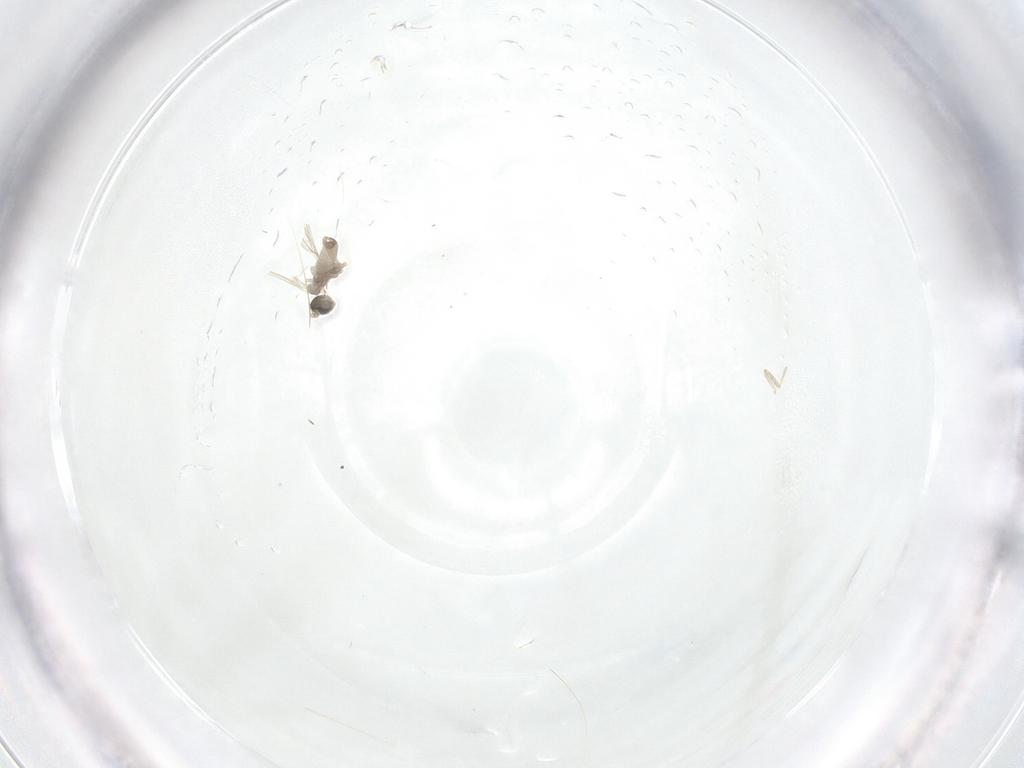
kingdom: Animalia
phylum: Arthropoda
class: Insecta
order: Diptera
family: Cecidomyiidae
